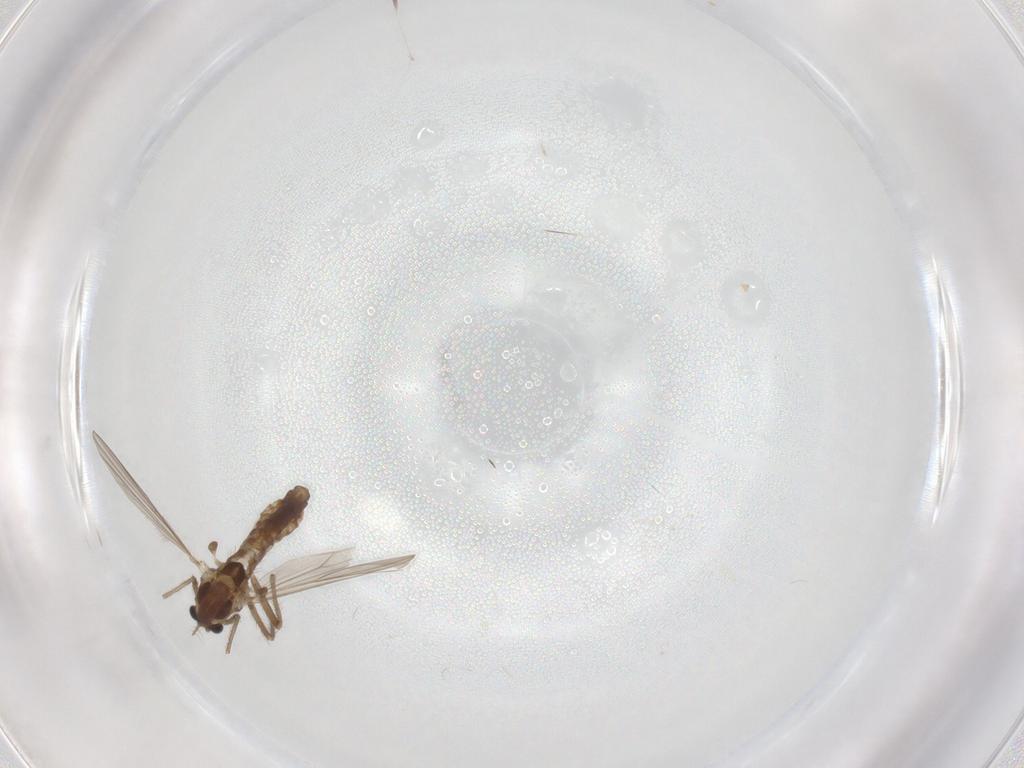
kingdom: Animalia
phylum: Arthropoda
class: Insecta
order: Diptera
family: Chironomidae
